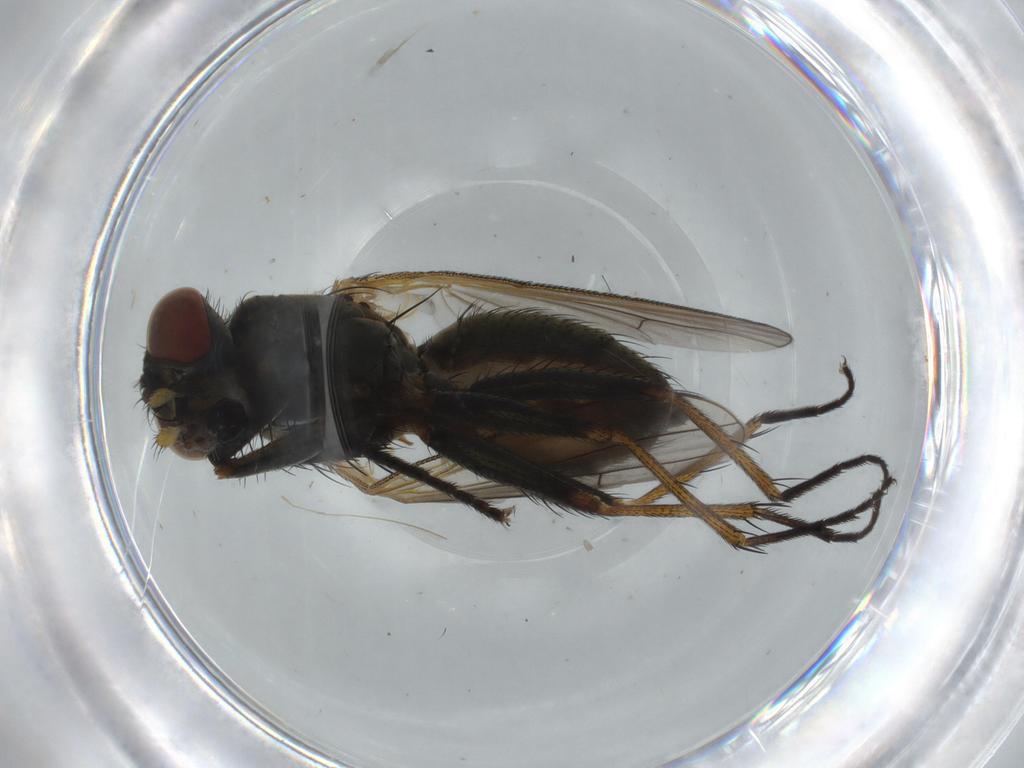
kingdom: Animalia
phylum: Arthropoda
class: Insecta
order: Diptera
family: Muscidae
